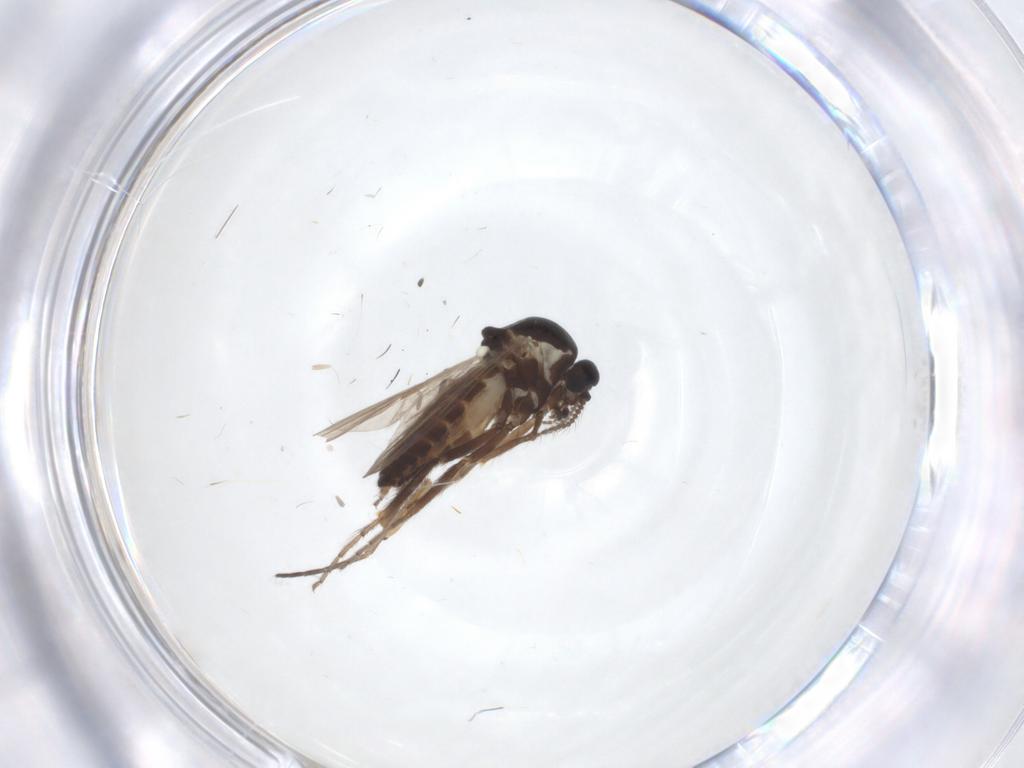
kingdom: Animalia
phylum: Arthropoda
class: Insecta
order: Diptera
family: Ceratopogonidae
